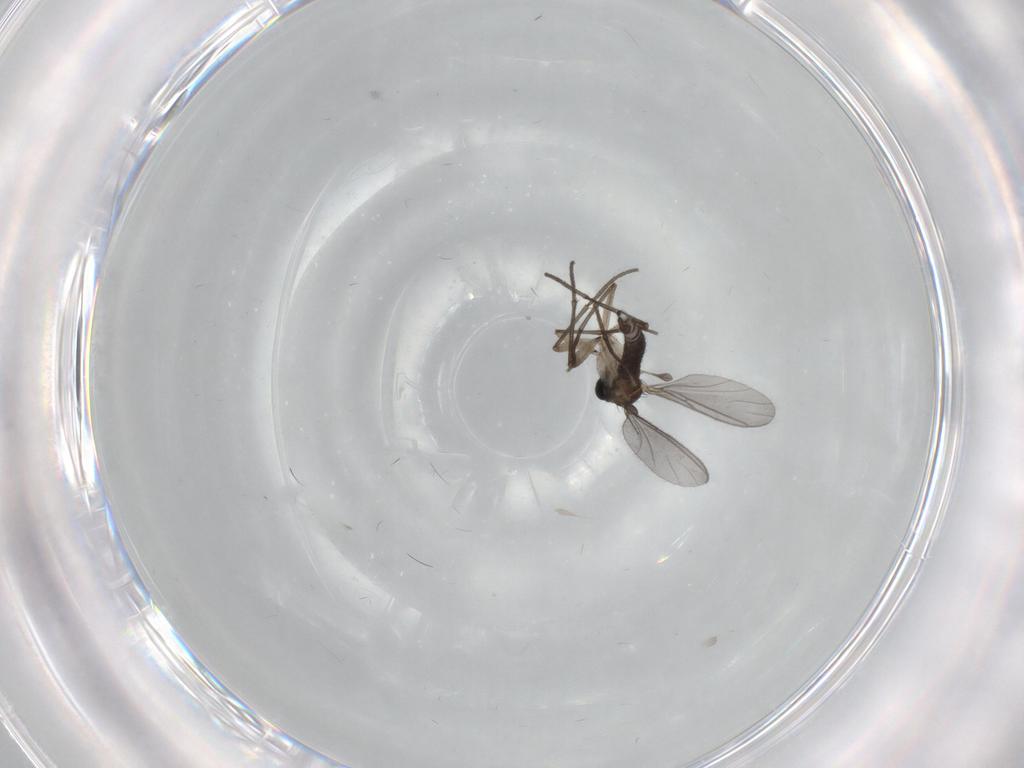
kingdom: Animalia
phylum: Arthropoda
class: Insecta
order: Diptera
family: Sciaridae
